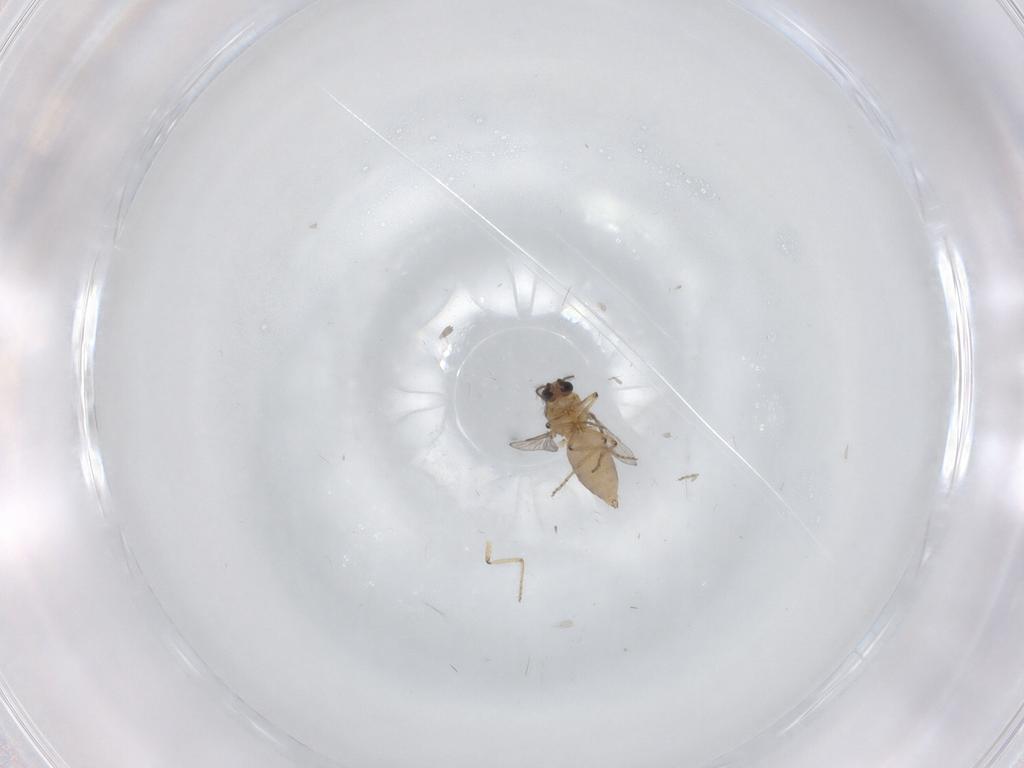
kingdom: Animalia
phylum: Arthropoda
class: Insecta
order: Diptera
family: Ceratopogonidae
